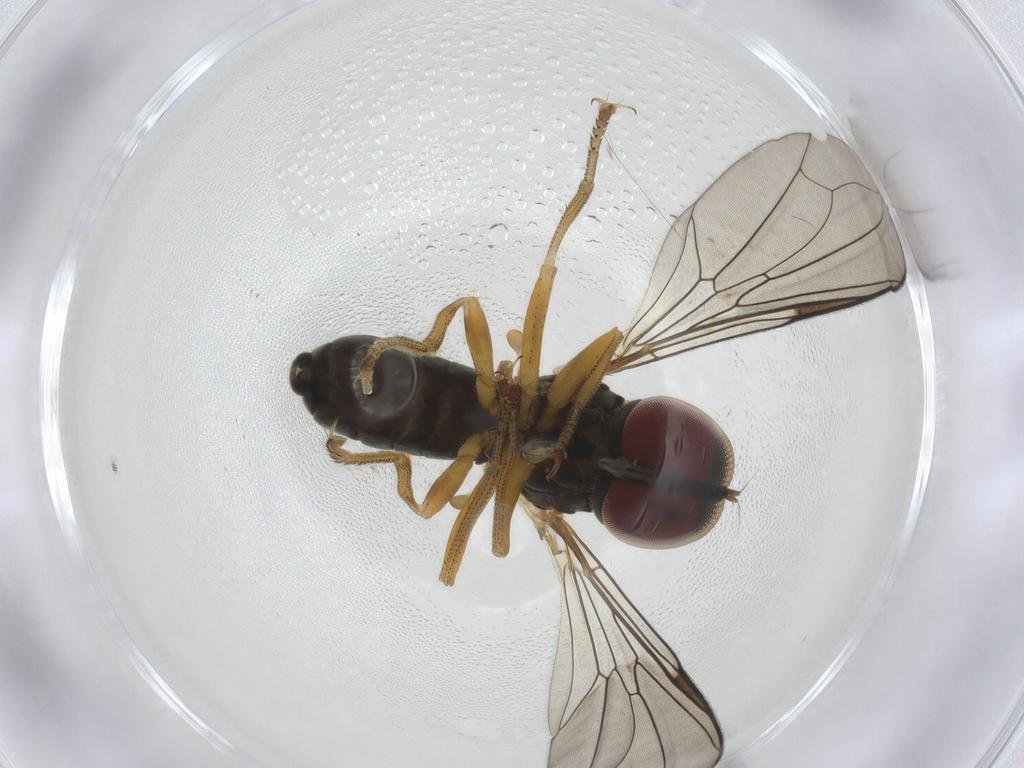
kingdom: Animalia
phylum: Arthropoda
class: Insecta
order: Diptera
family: Pipunculidae
